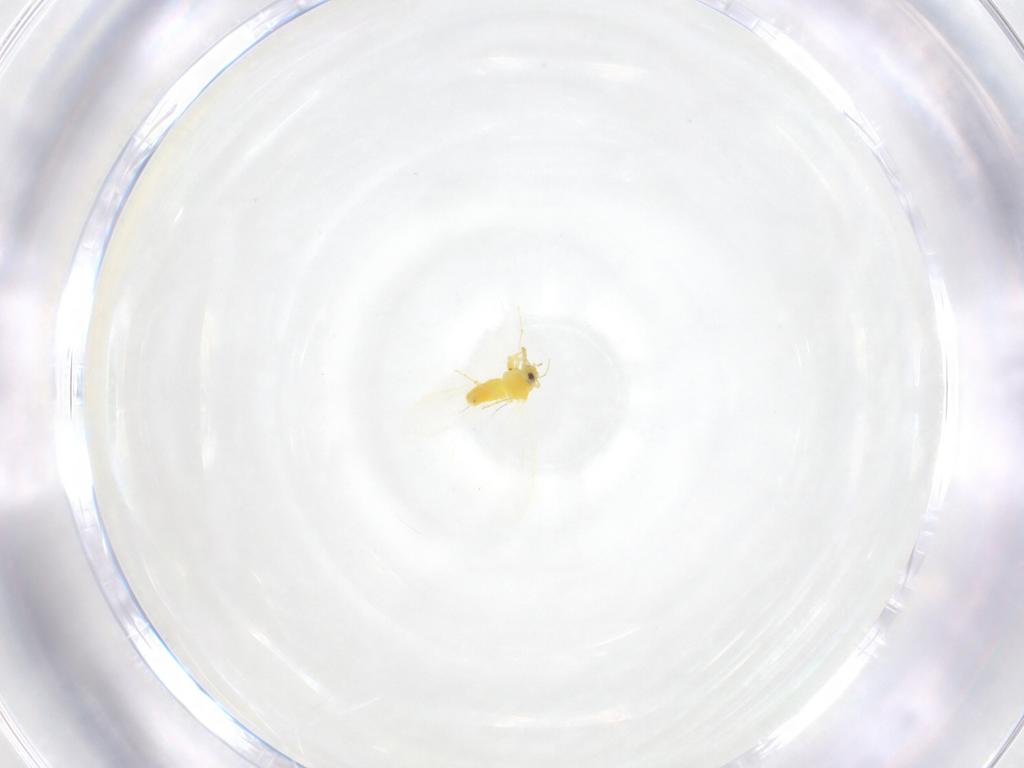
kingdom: Animalia
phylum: Arthropoda
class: Insecta
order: Hemiptera
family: Aleyrodidae
